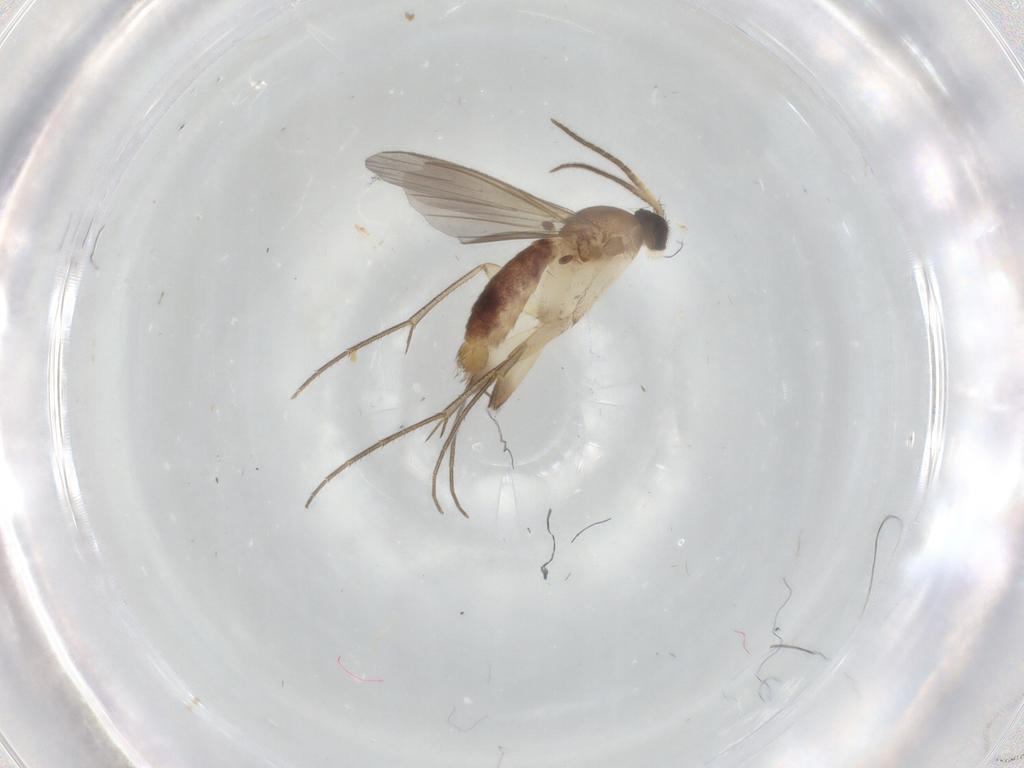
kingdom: Animalia
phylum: Arthropoda
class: Insecta
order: Diptera
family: Mycetophilidae
